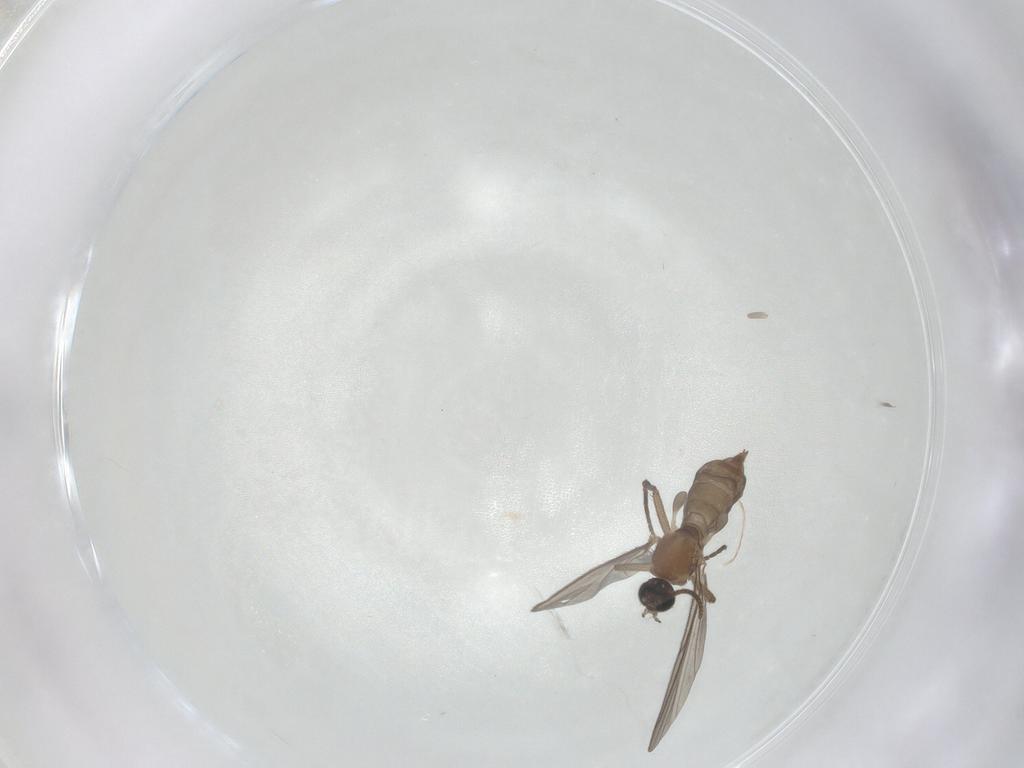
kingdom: Animalia
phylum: Arthropoda
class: Insecta
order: Diptera
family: Sciaridae
